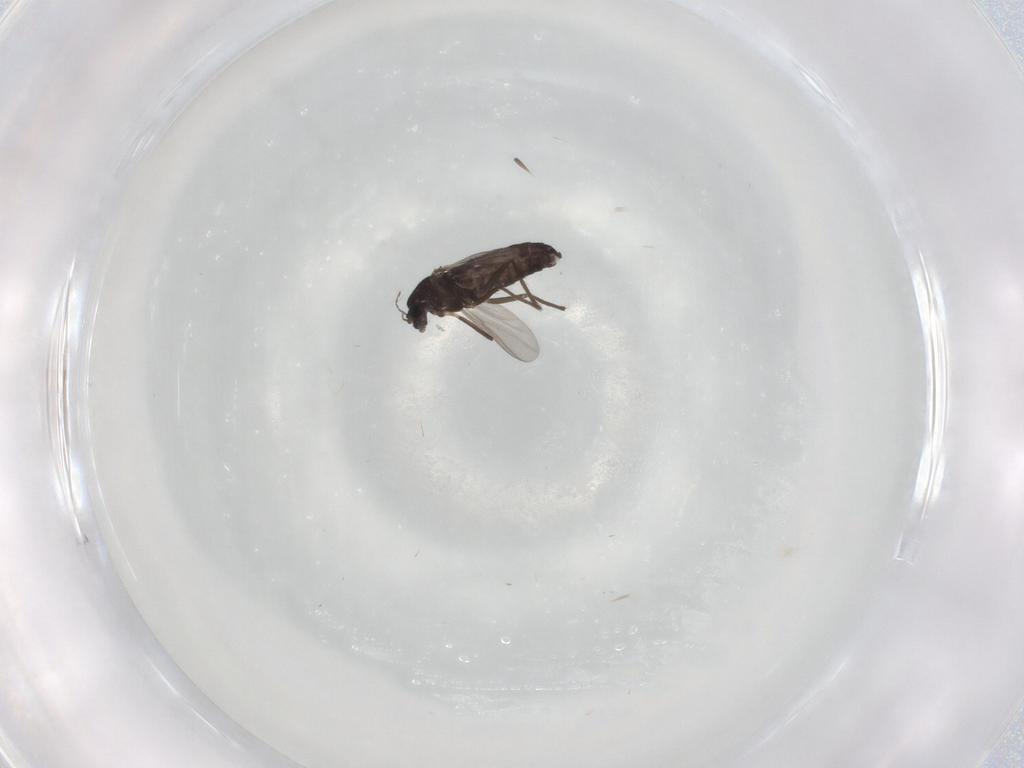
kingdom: Animalia
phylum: Arthropoda
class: Insecta
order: Diptera
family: Chironomidae
